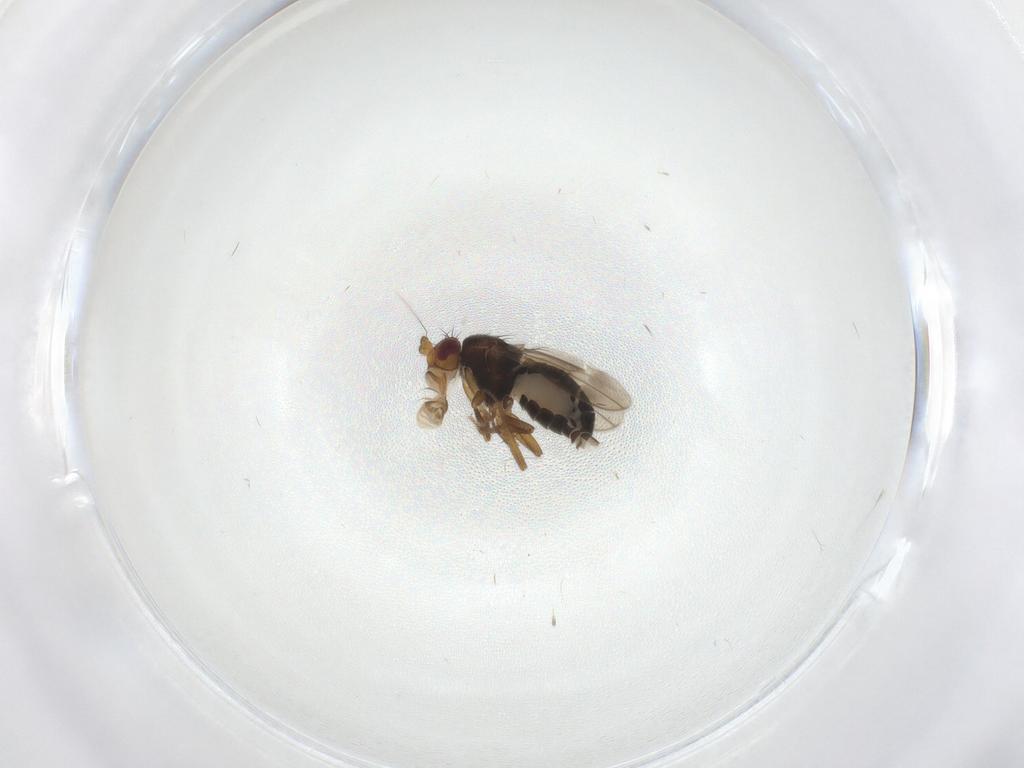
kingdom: Animalia
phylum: Arthropoda
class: Insecta
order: Diptera
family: Sphaeroceridae
